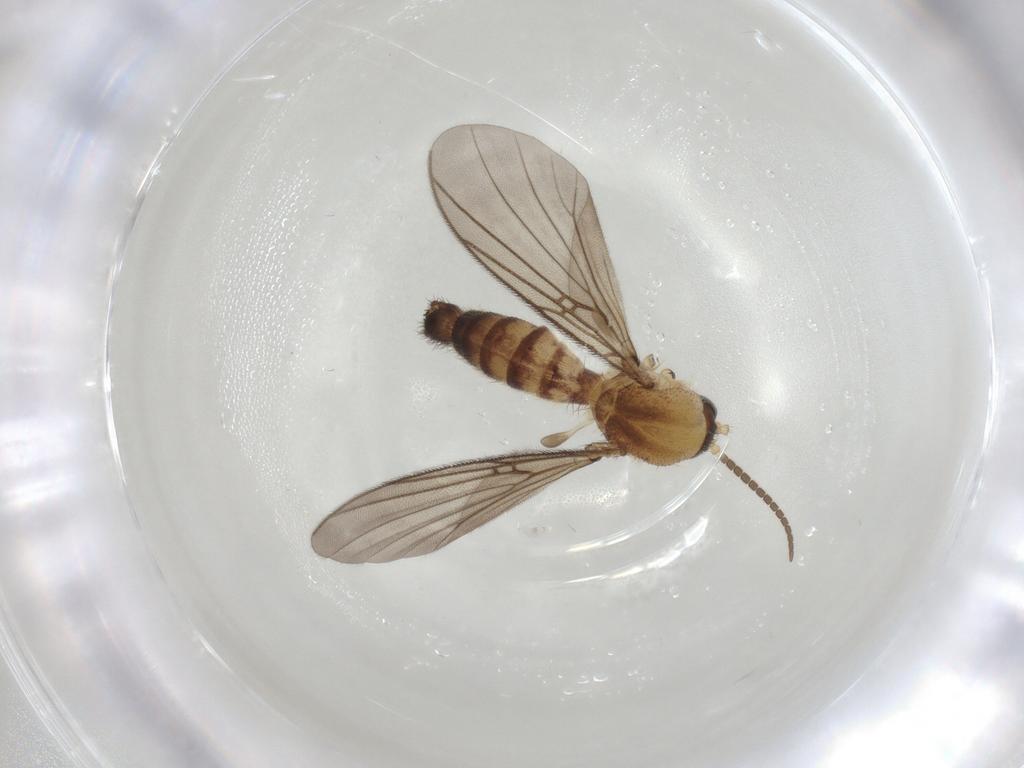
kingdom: Animalia
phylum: Arthropoda
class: Insecta
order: Diptera
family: Mycetophilidae
